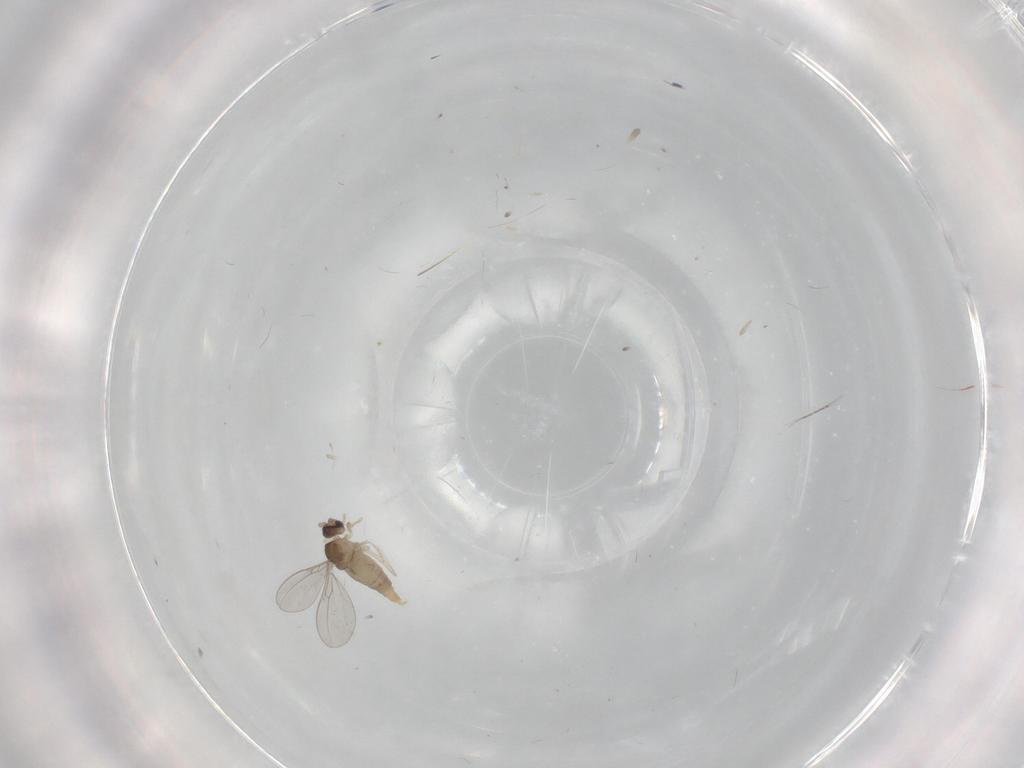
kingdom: Animalia
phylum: Arthropoda
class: Insecta
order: Diptera
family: Cecidomyiidae
